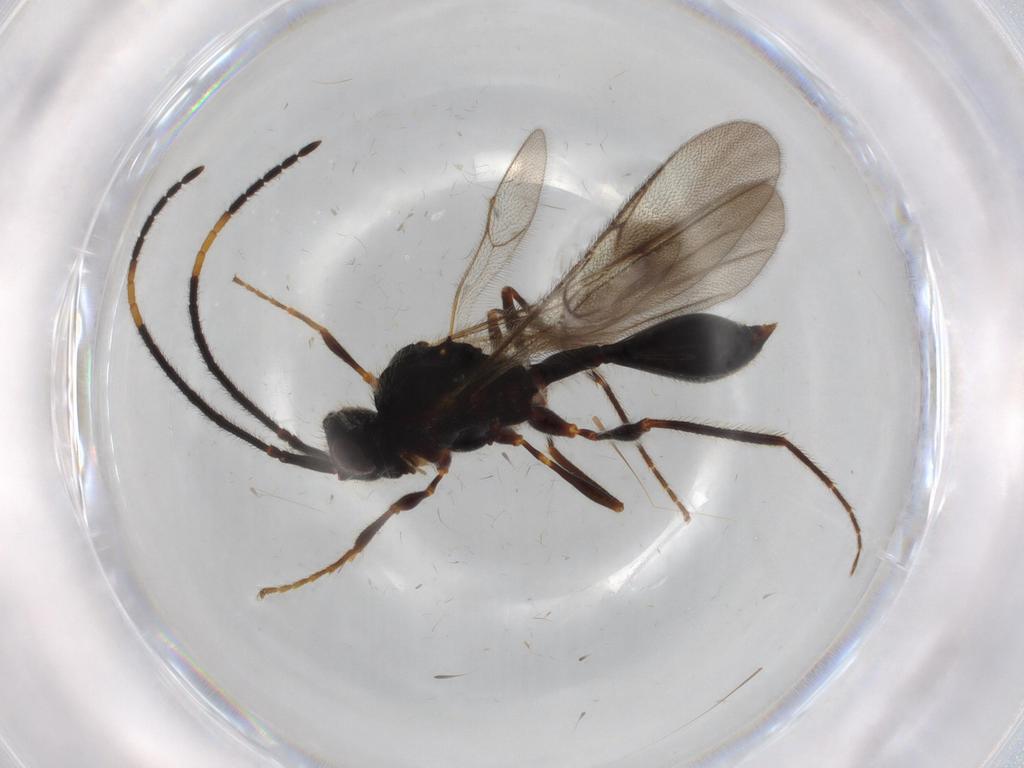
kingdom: Animalia
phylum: Arthropoda
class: Insecta
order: Hymenoptera
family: Diapriidae
